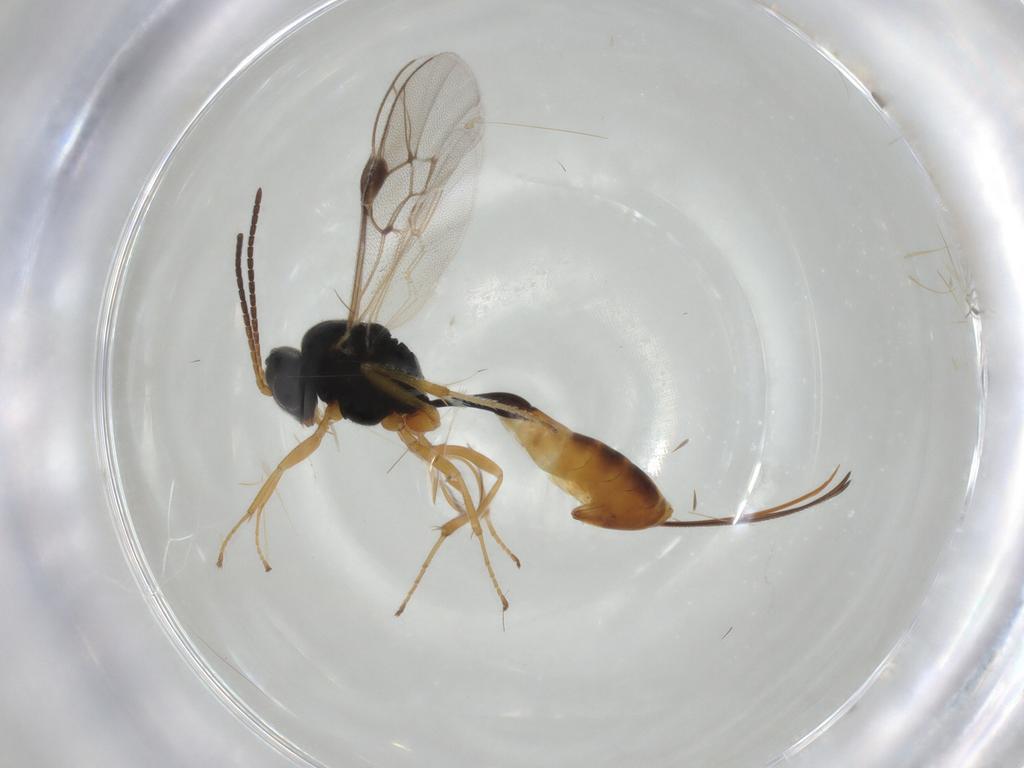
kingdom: Animalia
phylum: Arthropoda
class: Insecta
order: Hymenoptera
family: Ichneumonidae
